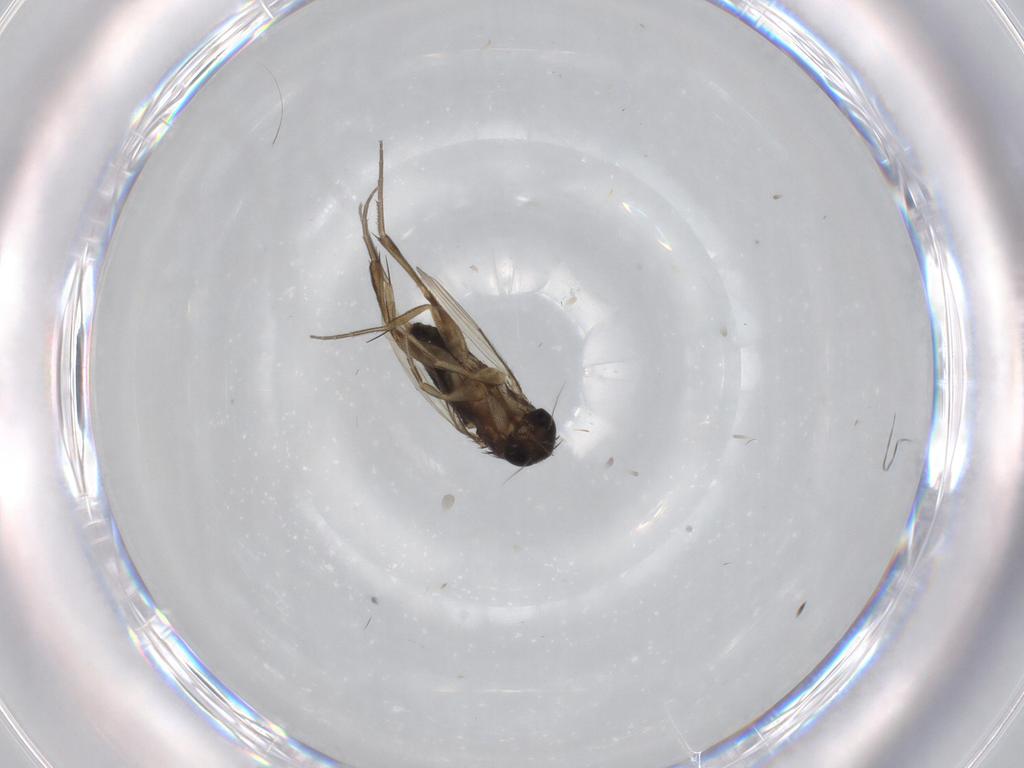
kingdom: Animalia
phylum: Arthropoda
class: Insecta
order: Diptera
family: Phoridae
